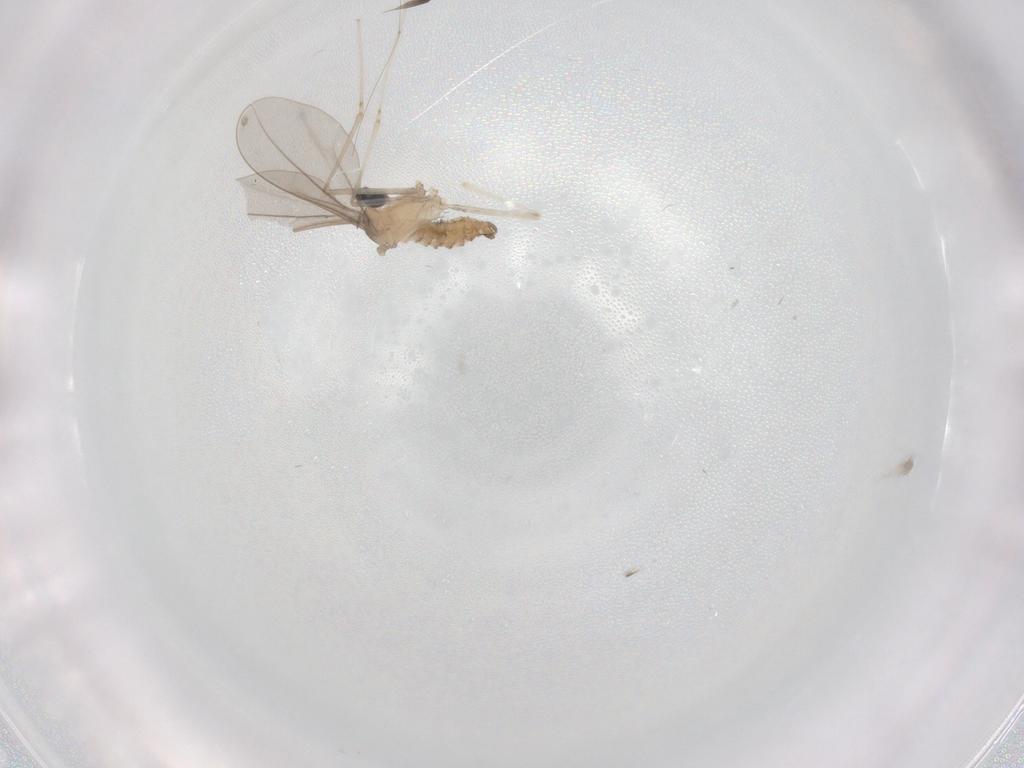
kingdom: Animalia
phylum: Arthropoda
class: Insecta
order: Diptera
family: Cecidomyiidae
